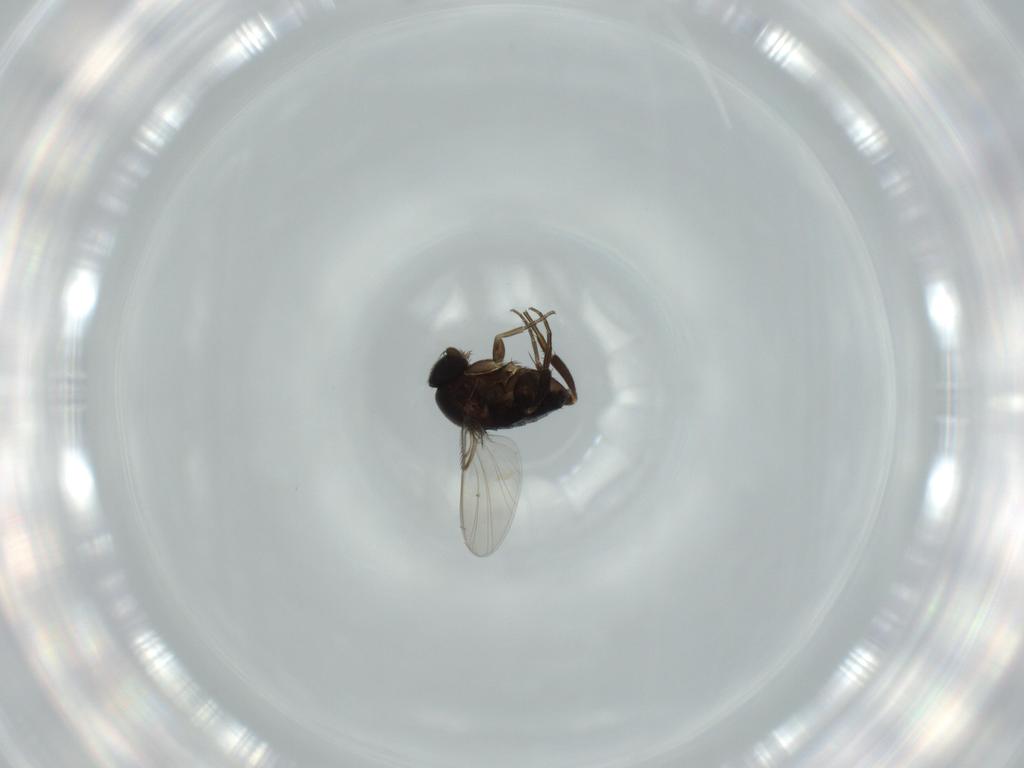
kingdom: Animalia
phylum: Arthropoda
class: Insecta
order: Diptera
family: Phoridae
